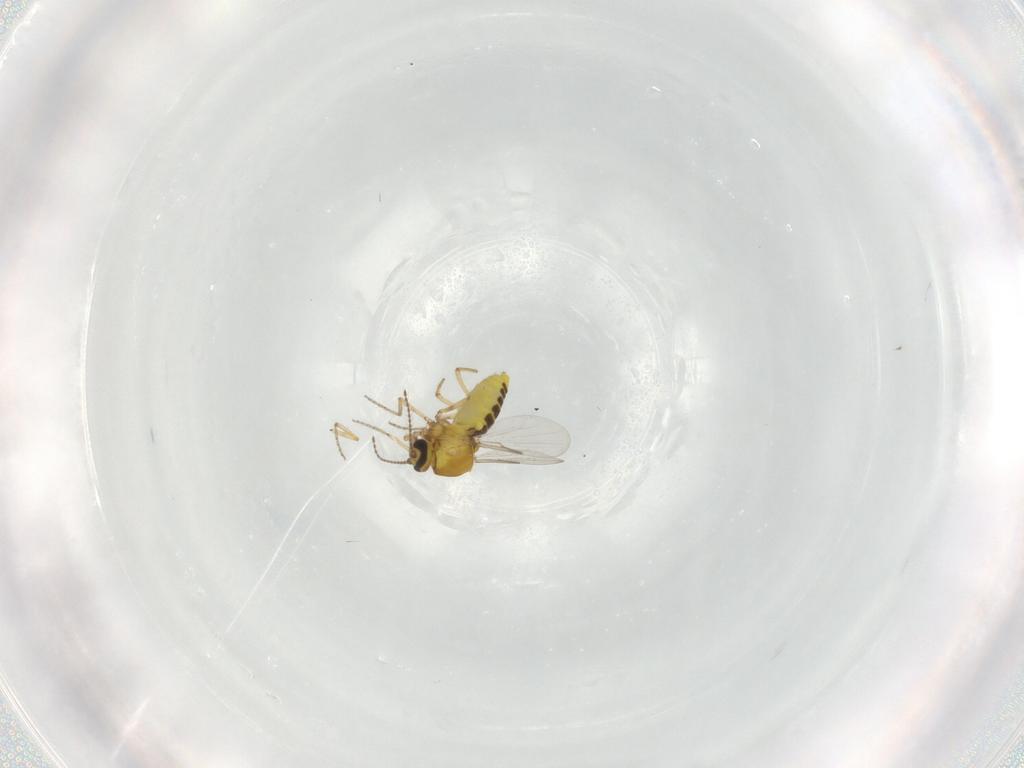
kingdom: Animalia
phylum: Arthropoda
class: Insecta
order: Diptera
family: Ceratopogonidae
